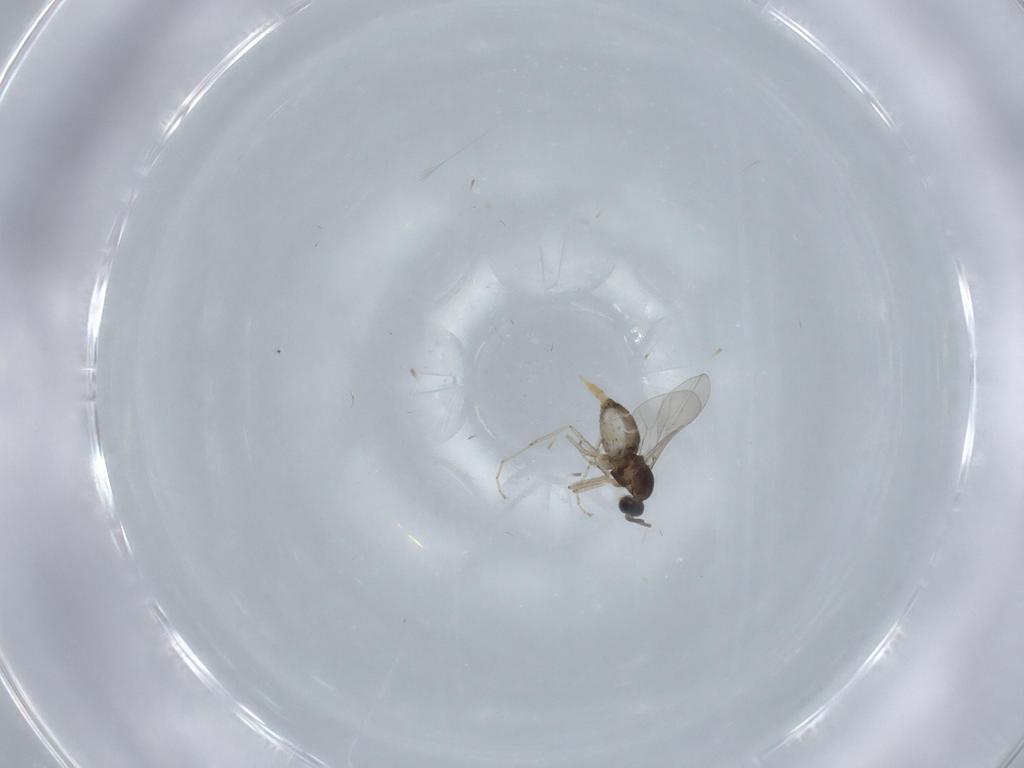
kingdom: Animalia
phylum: Arthropoda
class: Insecta
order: Diptera
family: Cecidomyiidae
